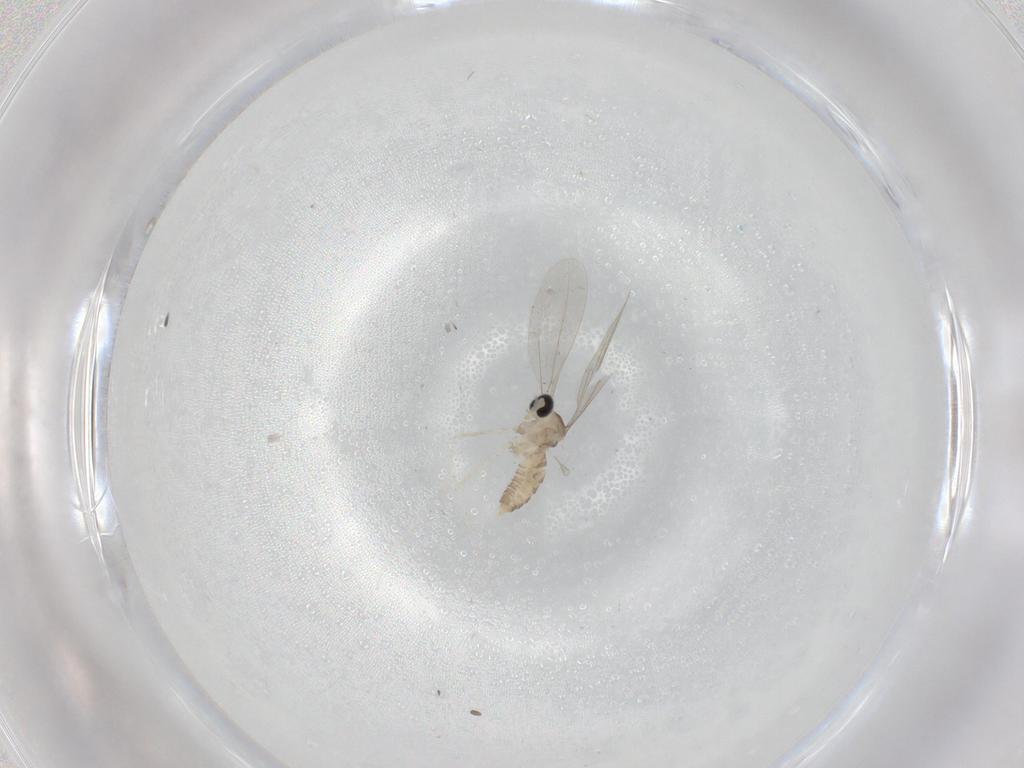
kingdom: Animalia
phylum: Arthropoda
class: Insecta
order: Diptera
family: Cecidomyiidae
